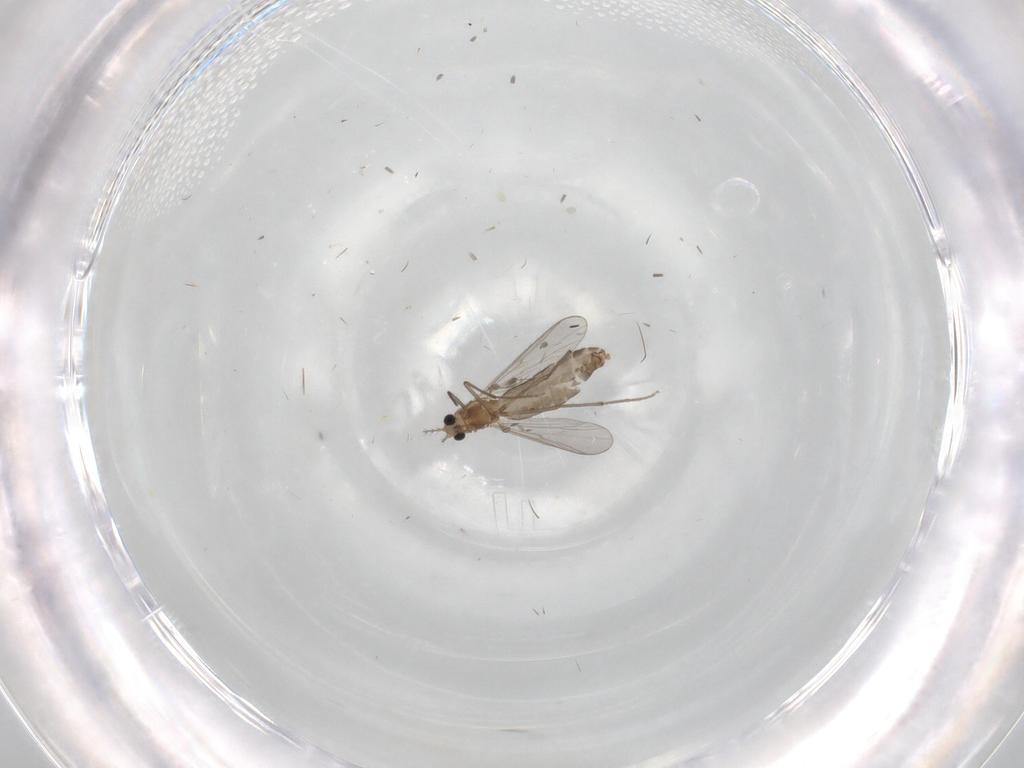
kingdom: Animalia
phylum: Arthropoda
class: Insecta
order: Diptera
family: Chironomidae
